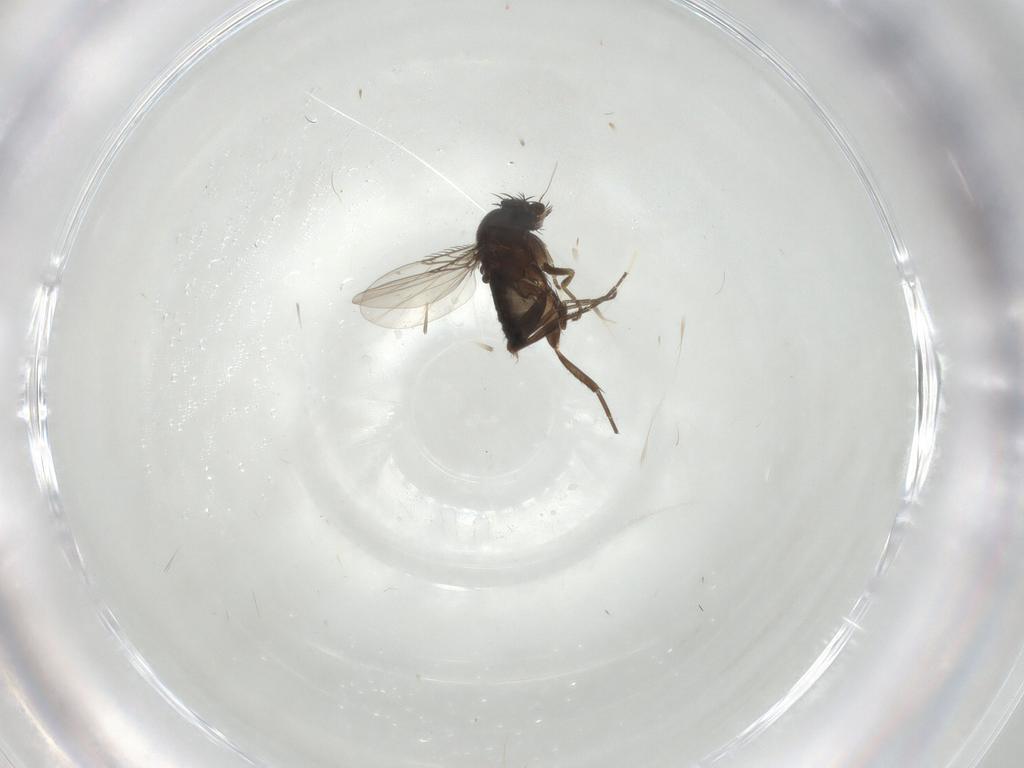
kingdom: Animalia
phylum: Arthropoda
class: Insecta
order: Diptera
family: Phoridae
